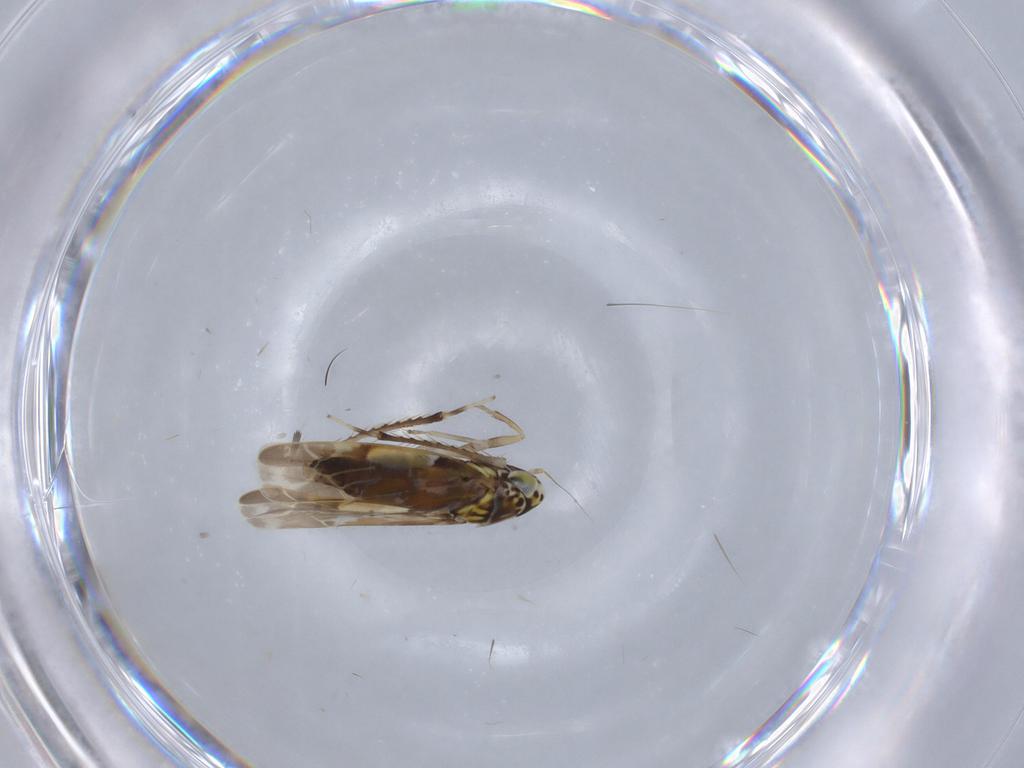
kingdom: Animalia
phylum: Arthropoda
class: Insecta
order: Hemiptera
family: Cicadellidae
